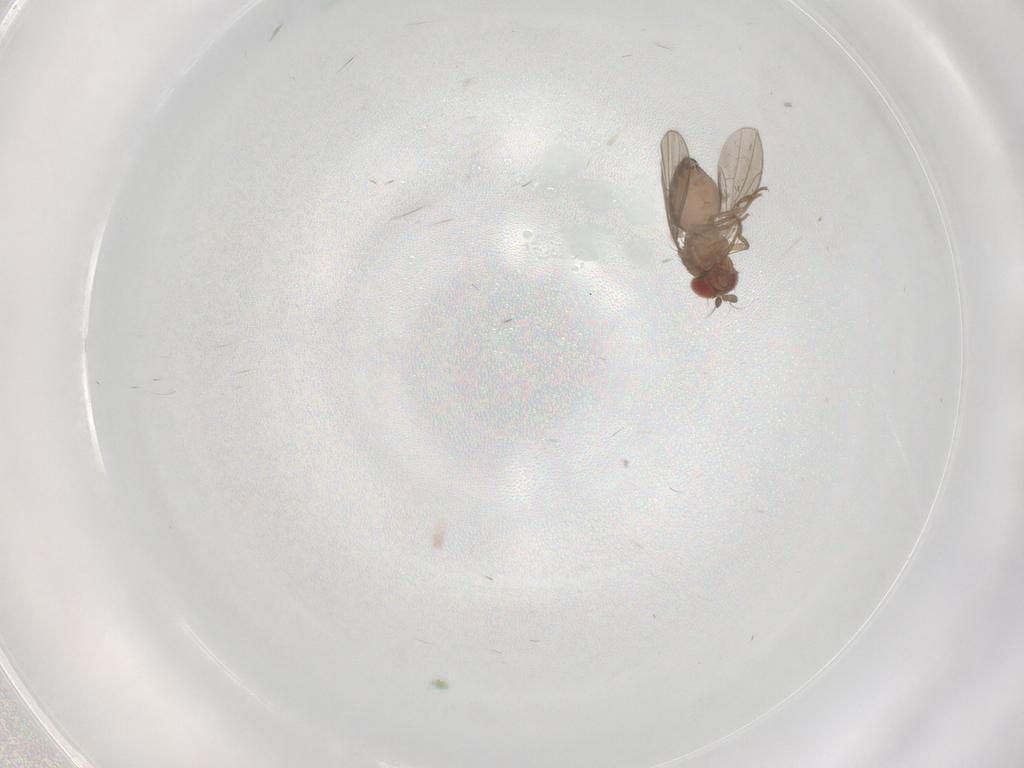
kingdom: Animalia
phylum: Arthropoda
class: Insecta
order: Diptera
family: Drosophilidae
